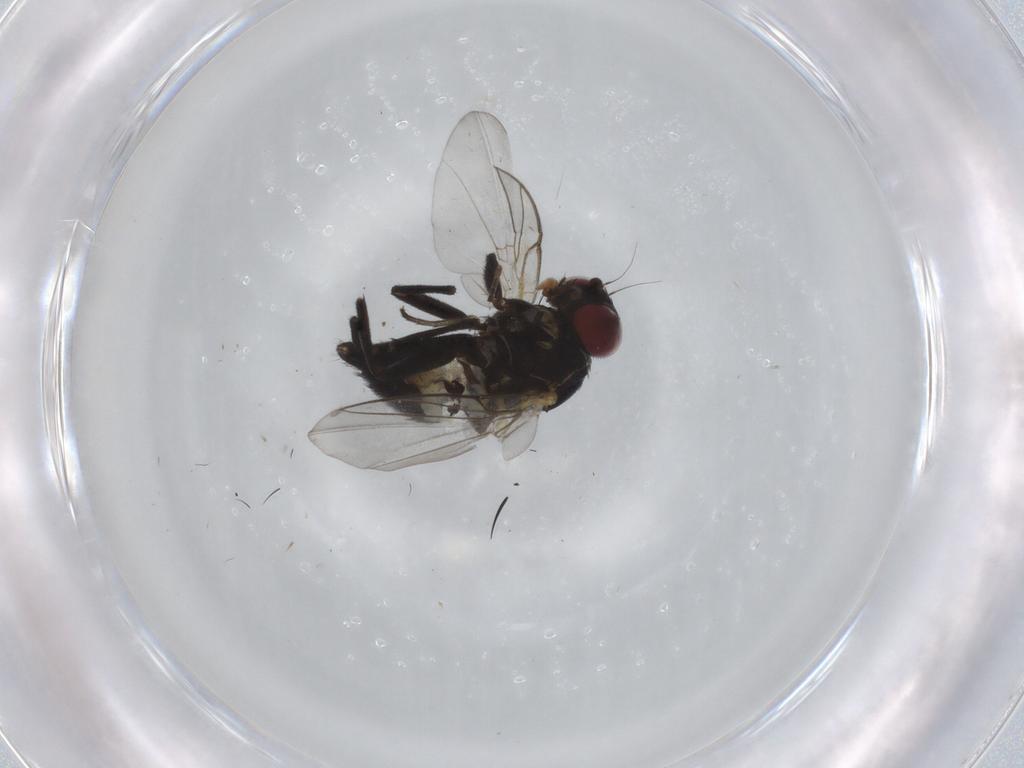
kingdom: Animalia
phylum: Arthropoda
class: Insecta
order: Diptera
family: Agromyzidae
